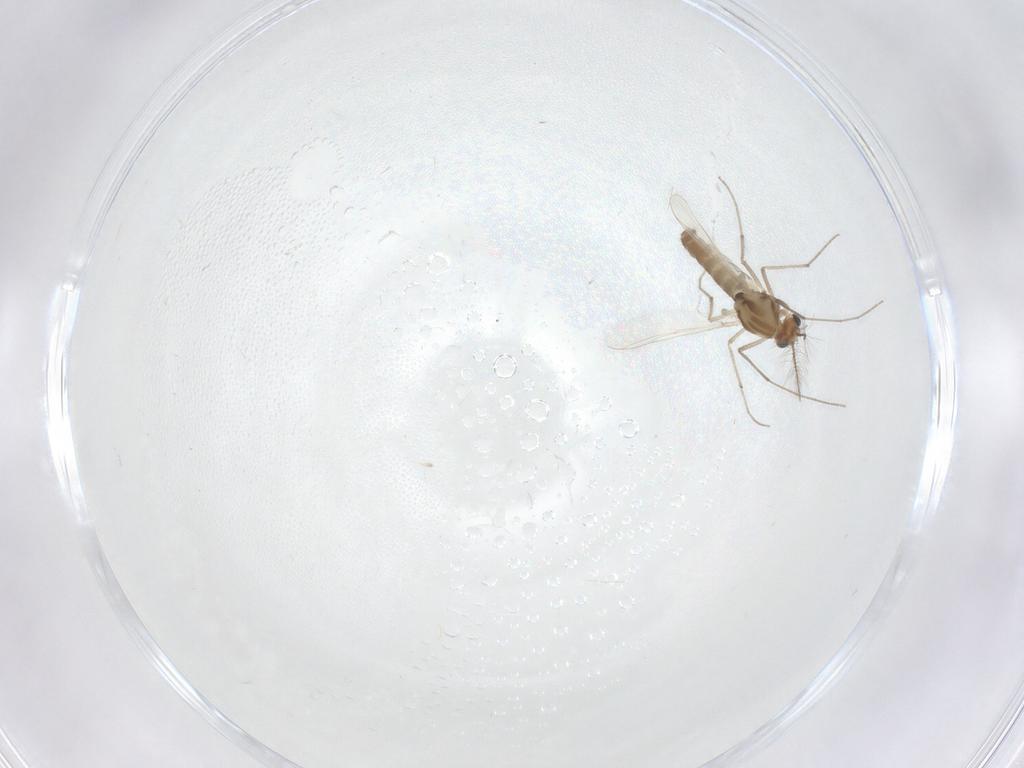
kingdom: Animalia
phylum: Arthropoda
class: Insecta
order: Diptera
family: Chironomidae
